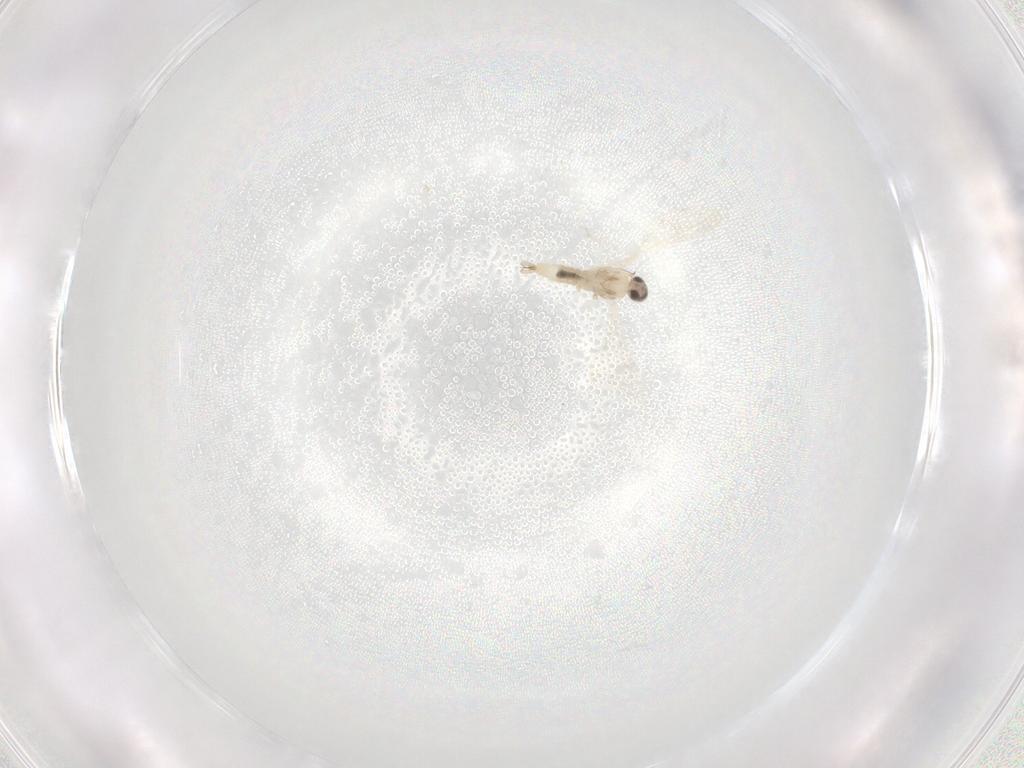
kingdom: Animalia
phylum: Arthropoda
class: Insecta
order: Diptera
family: Cecidomyiidae
